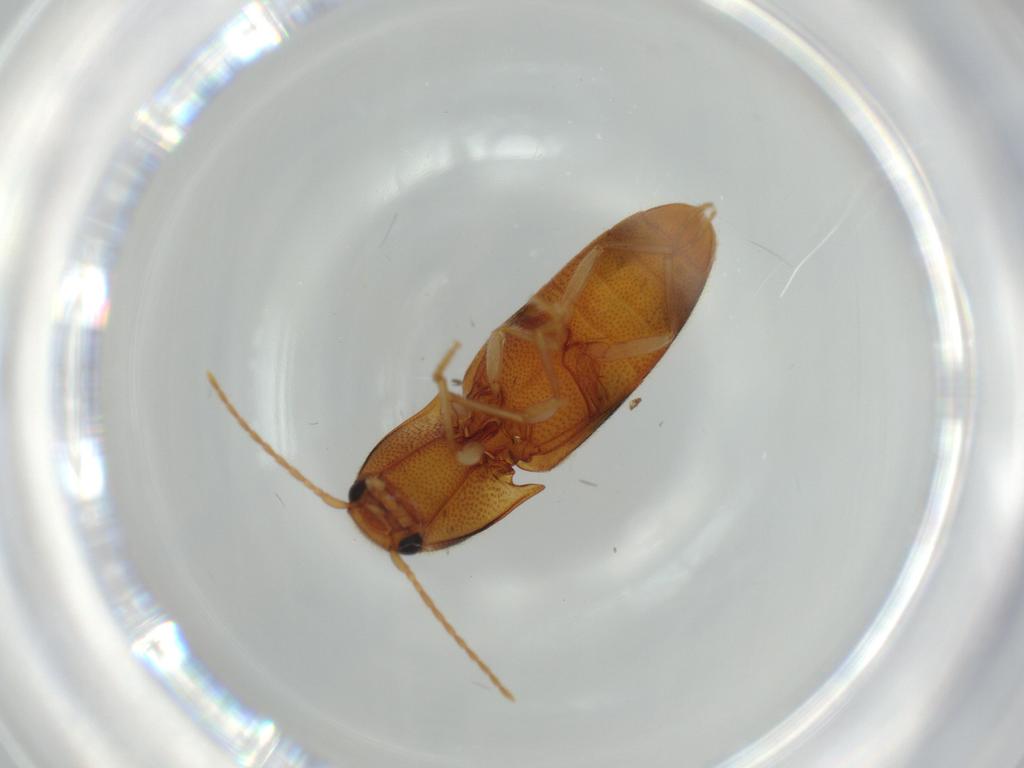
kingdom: Animalia
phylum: Arthropoda
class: Insecta
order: Coleoptera
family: Elateridae
